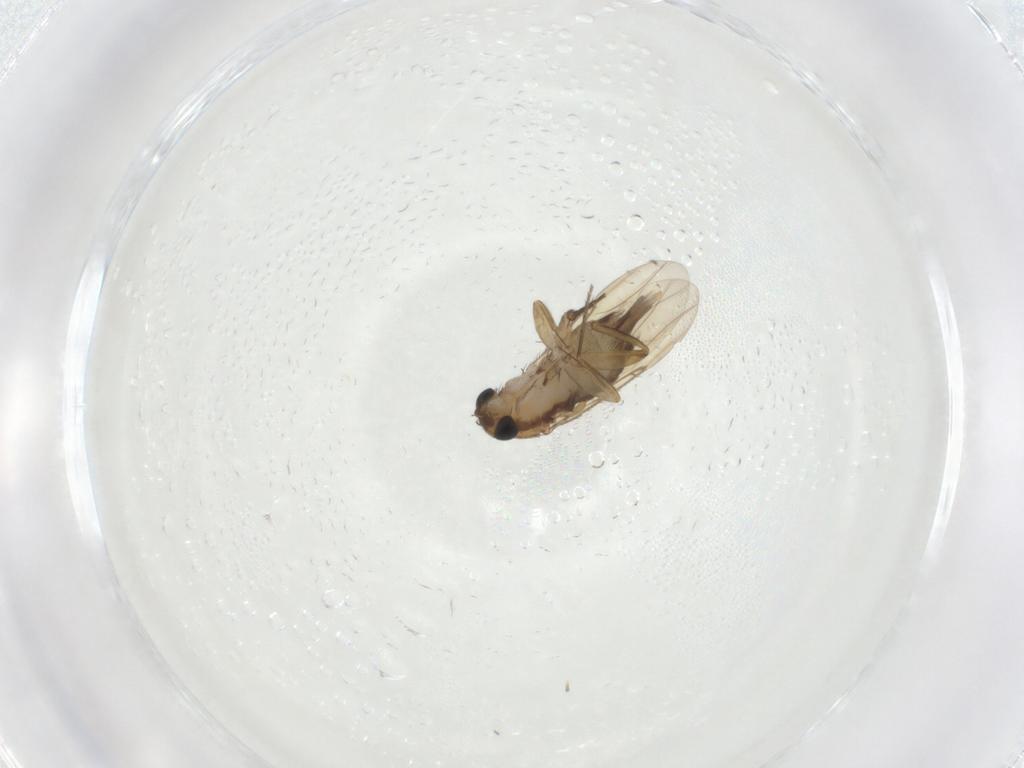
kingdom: Animalia
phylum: Arthropoda
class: Insecta
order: Diptera
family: Phoridae
